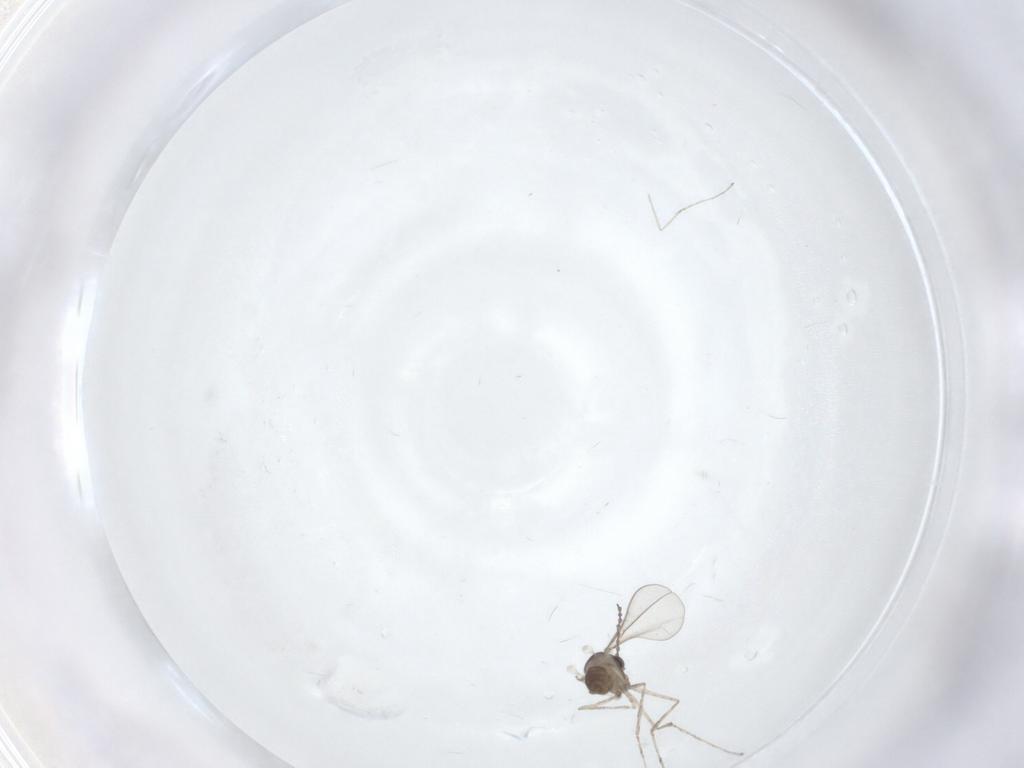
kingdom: Animalia
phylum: Arthropoda
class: Insecta
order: Diptera
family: Cecidomyiidae
